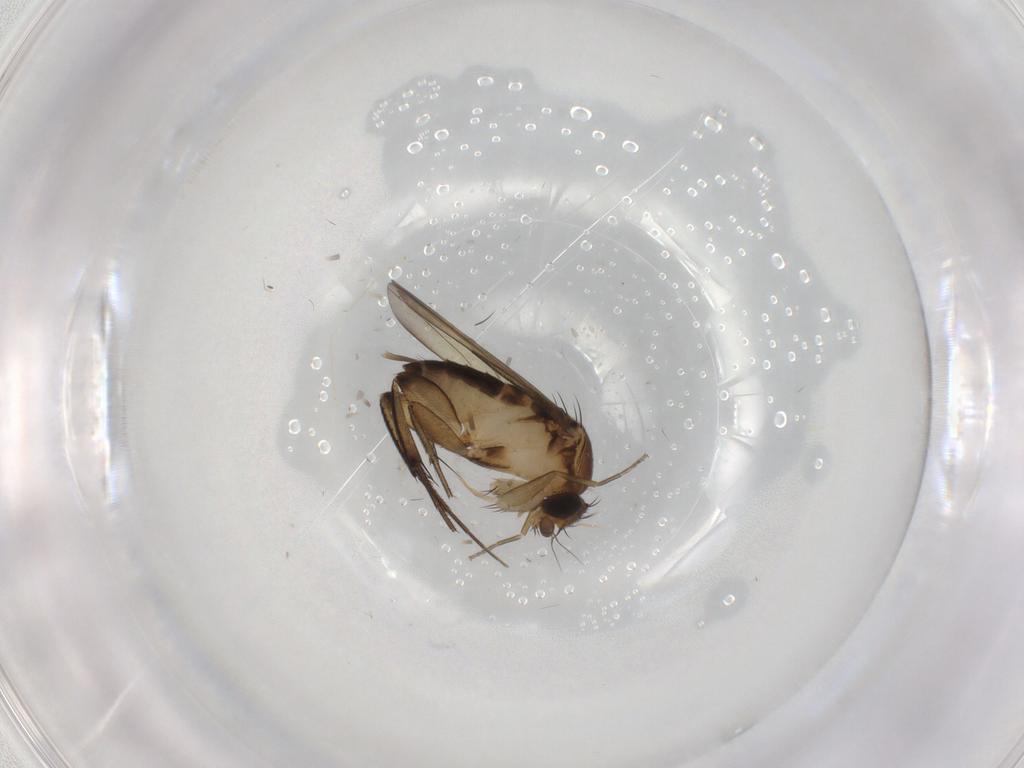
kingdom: Animalia
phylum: Arthropoda
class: Insecta
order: Diptera
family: Phoridae
